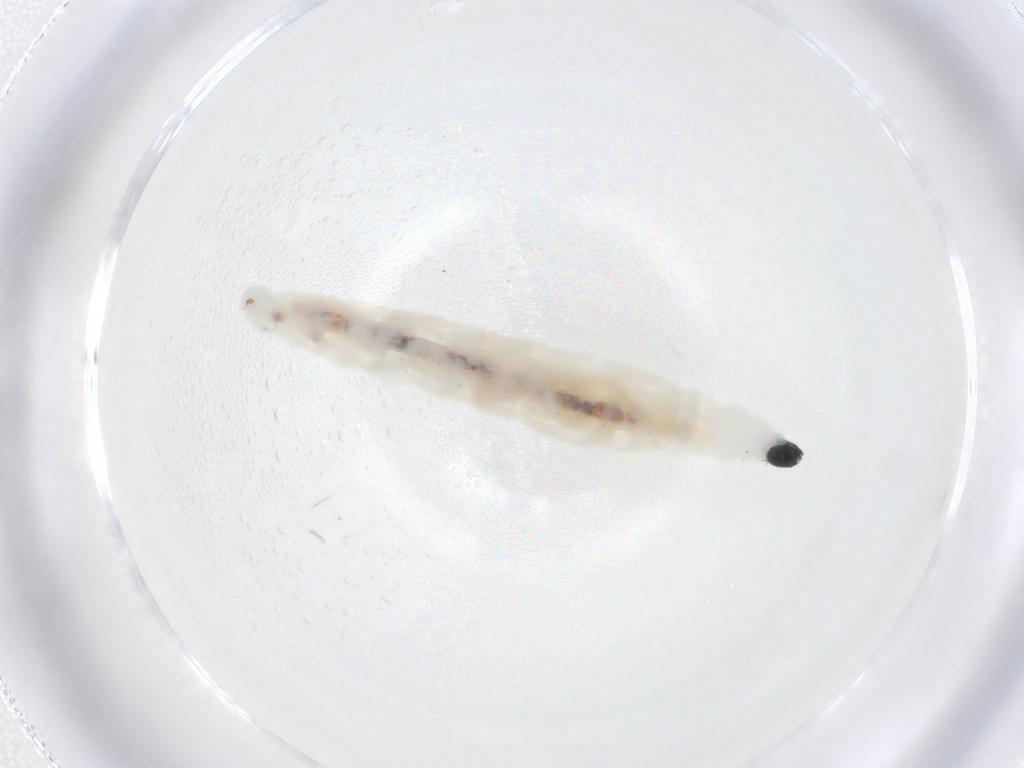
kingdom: Animalia
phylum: Arthropoda
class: Insecta
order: Diptera
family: Sciaridae
